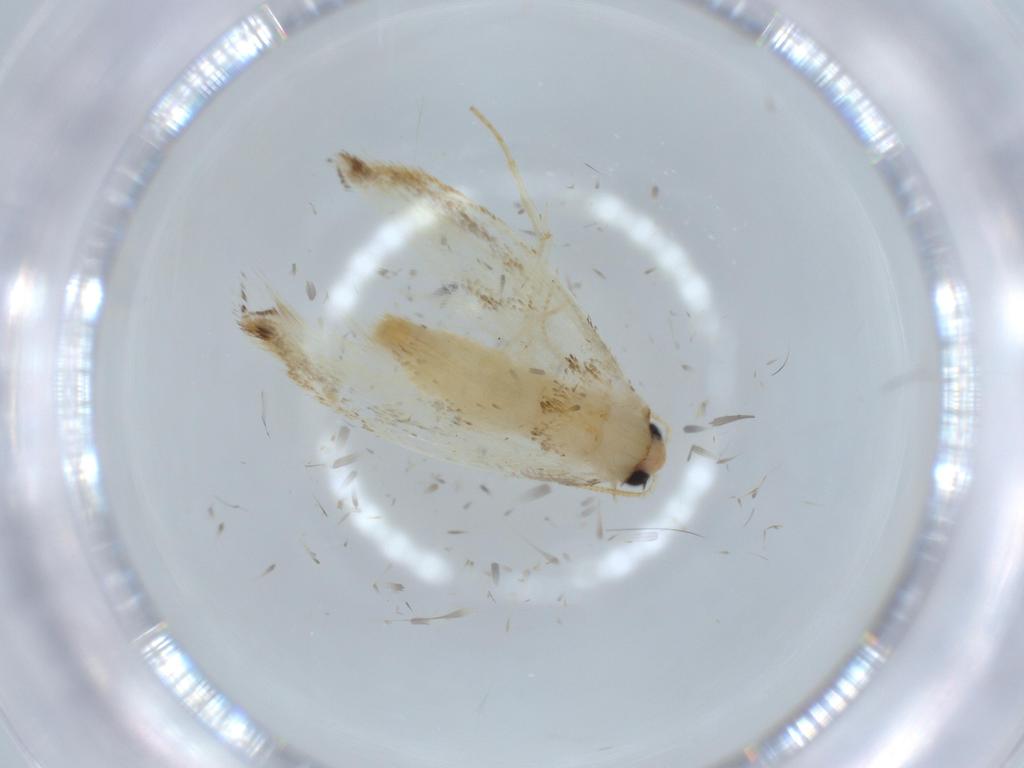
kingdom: Animalia
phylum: Arthropoda
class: Insecta
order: Lepidoptera
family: Tineidae
